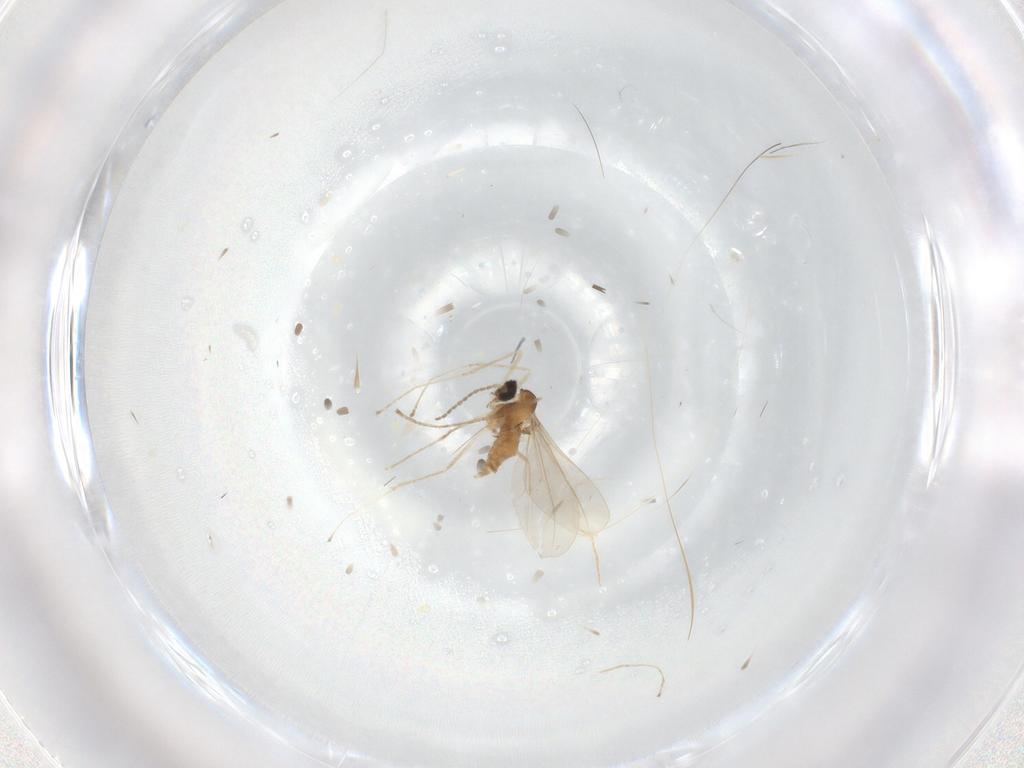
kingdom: Animalia
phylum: Arthropoda
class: Insecta
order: Diptera
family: Cecidomyiidae
